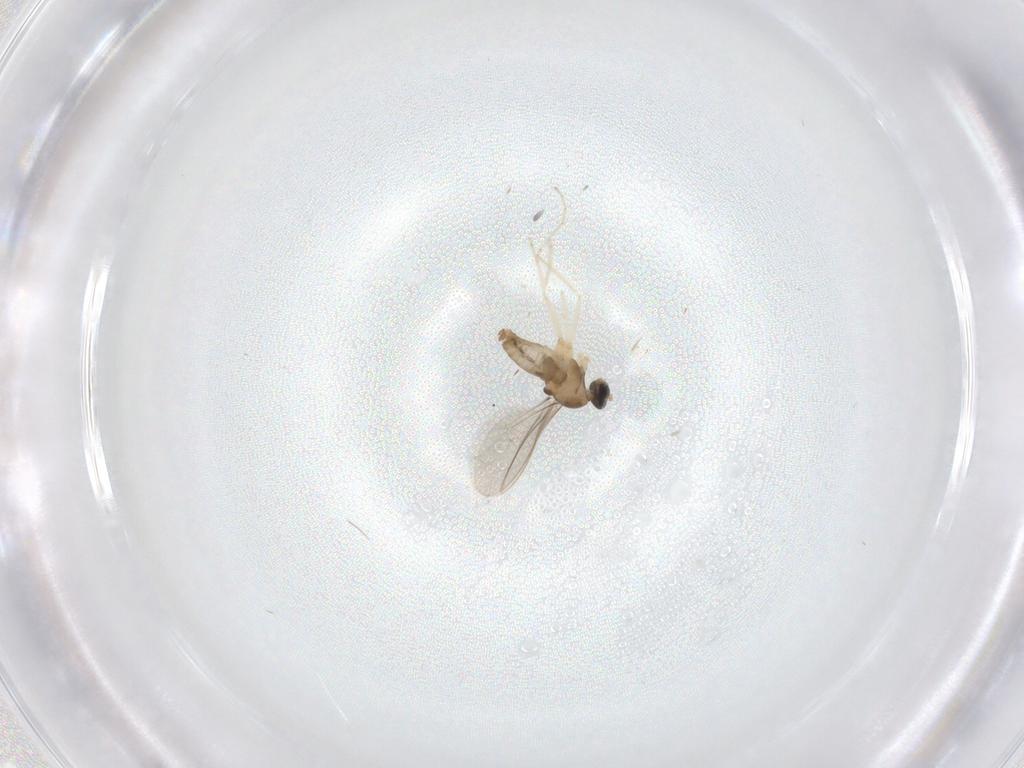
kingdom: Animalia
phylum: Arthropoda
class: Insecta
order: Diptera
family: Cecidomyiidae
